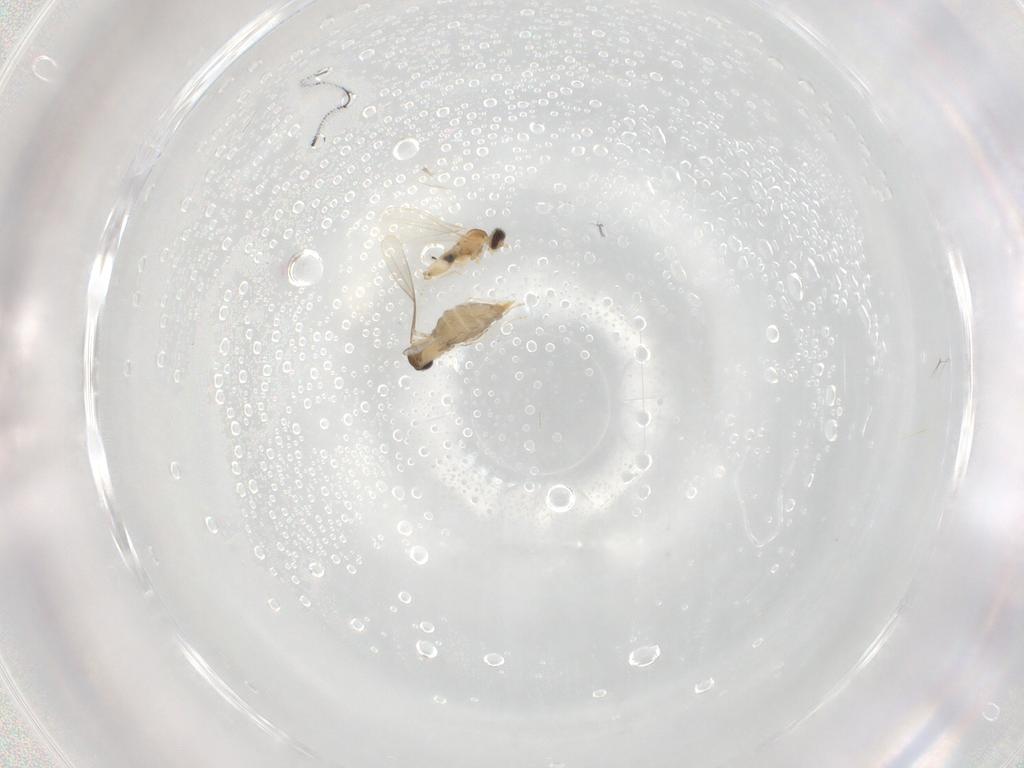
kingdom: Animalia
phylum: Arthropoda
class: Insecta
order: Diptera
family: Cecidomyiidae
